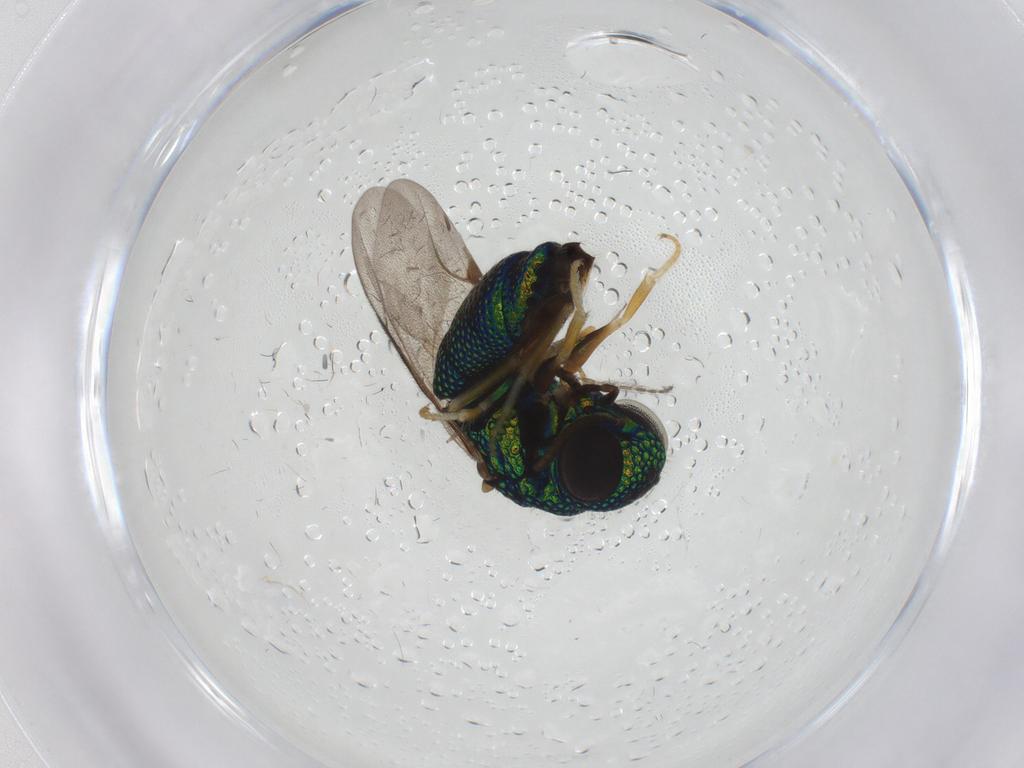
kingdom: Animalia
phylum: Arthropoda
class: Insecta
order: Hymenoptera
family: Chrysididae
